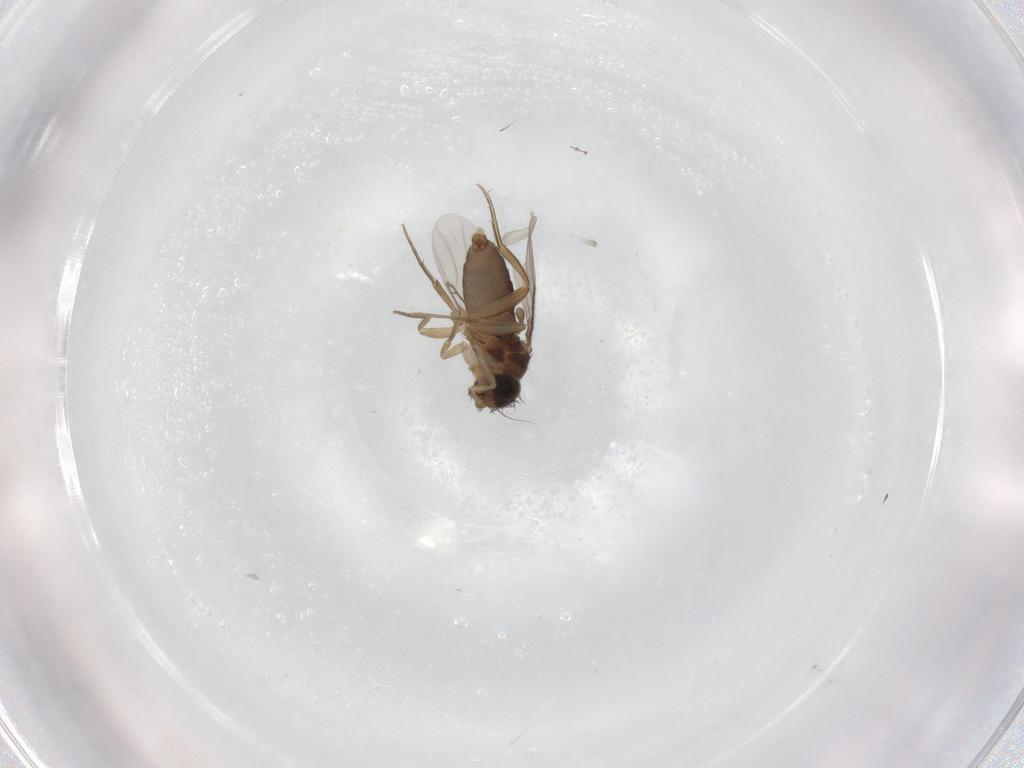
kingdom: Animalia
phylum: Arthropoda
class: Insecta
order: Diptera
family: Phoridae
